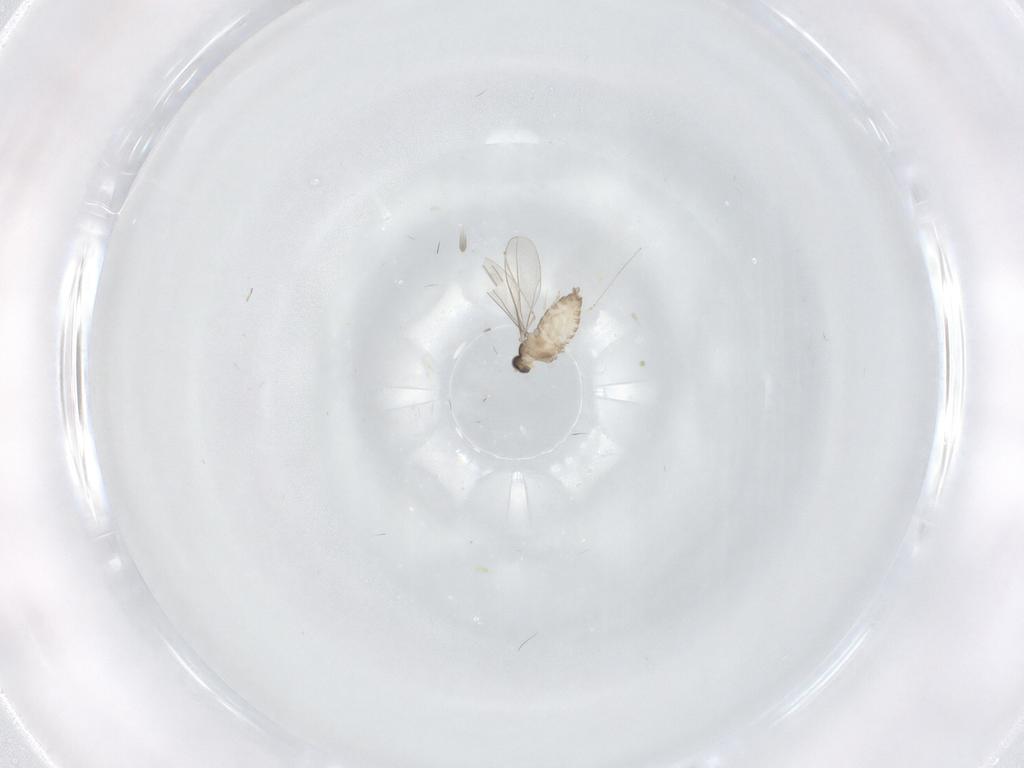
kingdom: Animalia
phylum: Arthropoda
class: Insecta
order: Diptera
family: Cecidomyiidae
